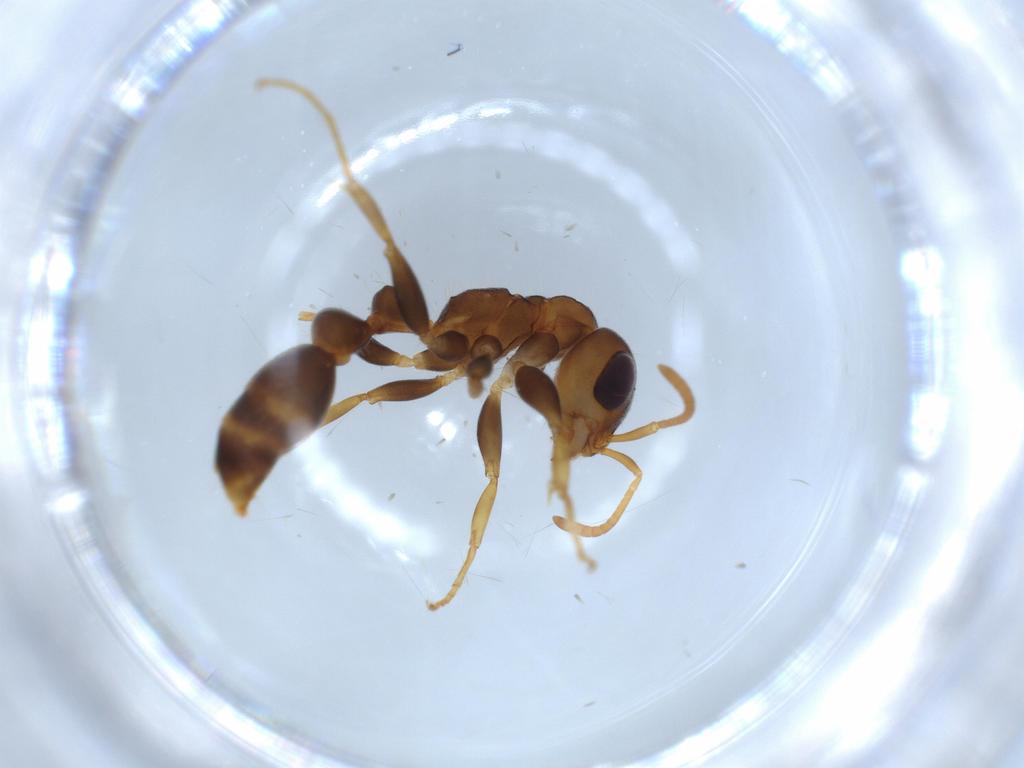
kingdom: Animalia
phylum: Arthropoda
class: Insecta
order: Hymenoptera
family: Formicidae
